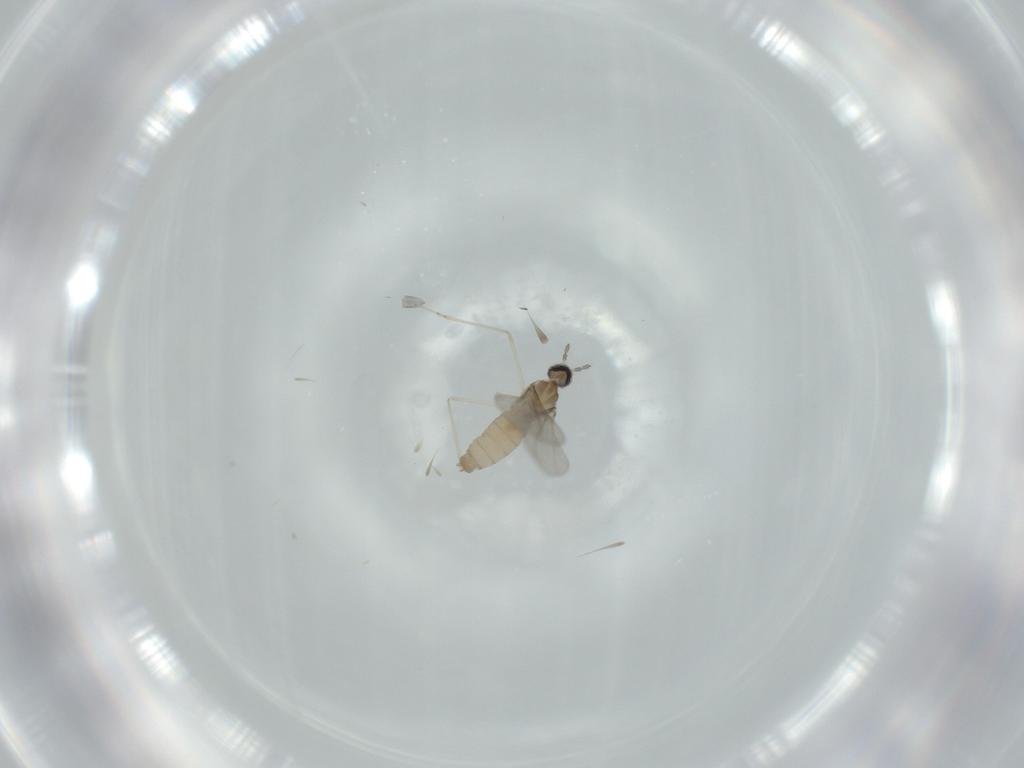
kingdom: Animalia
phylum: Arthropoda
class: Insecta
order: Diptera
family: Cecidomyiidae
